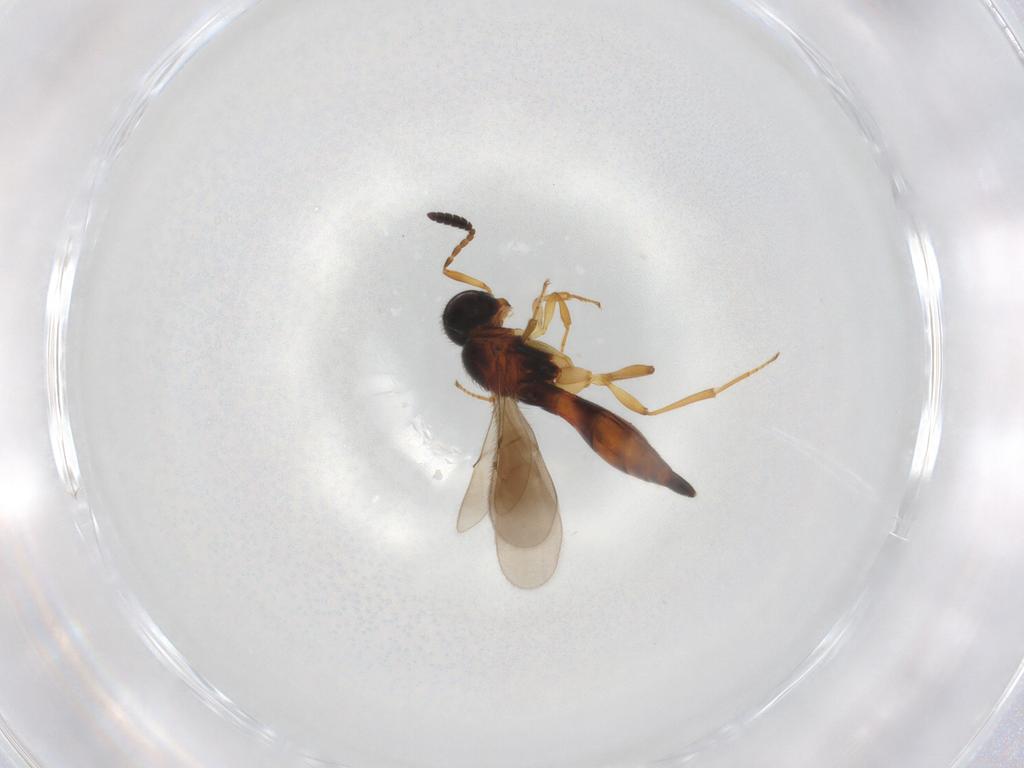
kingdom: Animalia
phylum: Arthropoda
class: Insecta
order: Hymenoptera
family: Scelionidae
